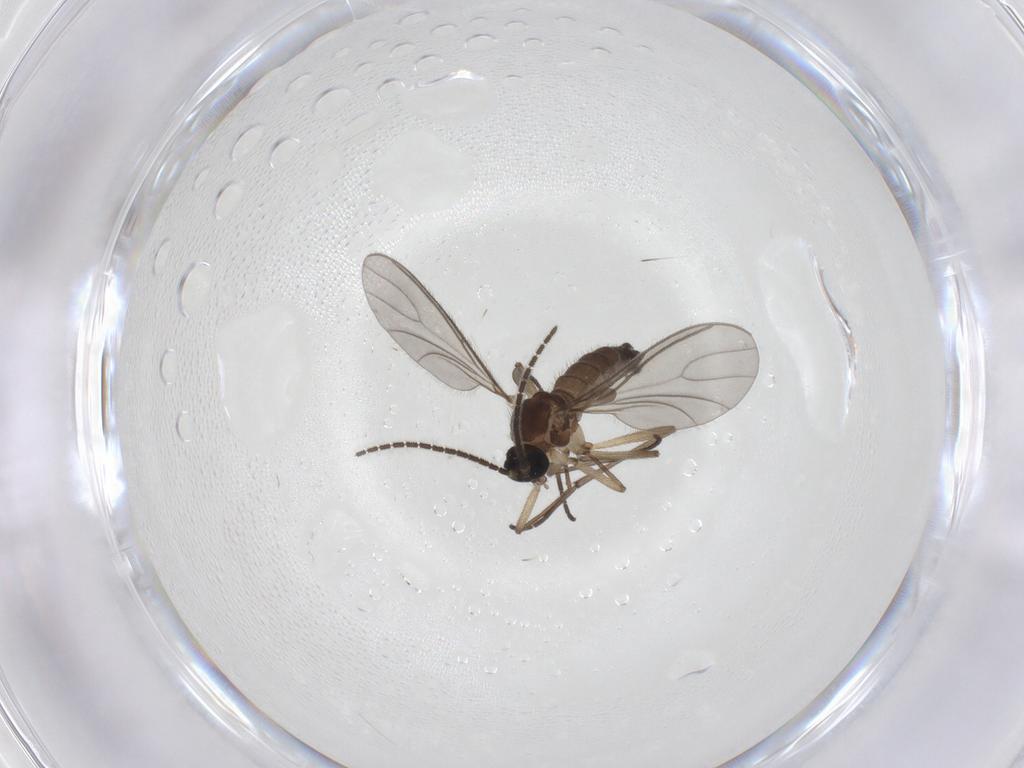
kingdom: Animalia
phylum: Arthropoda
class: Insecta
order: Diptera
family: Sciaridae
